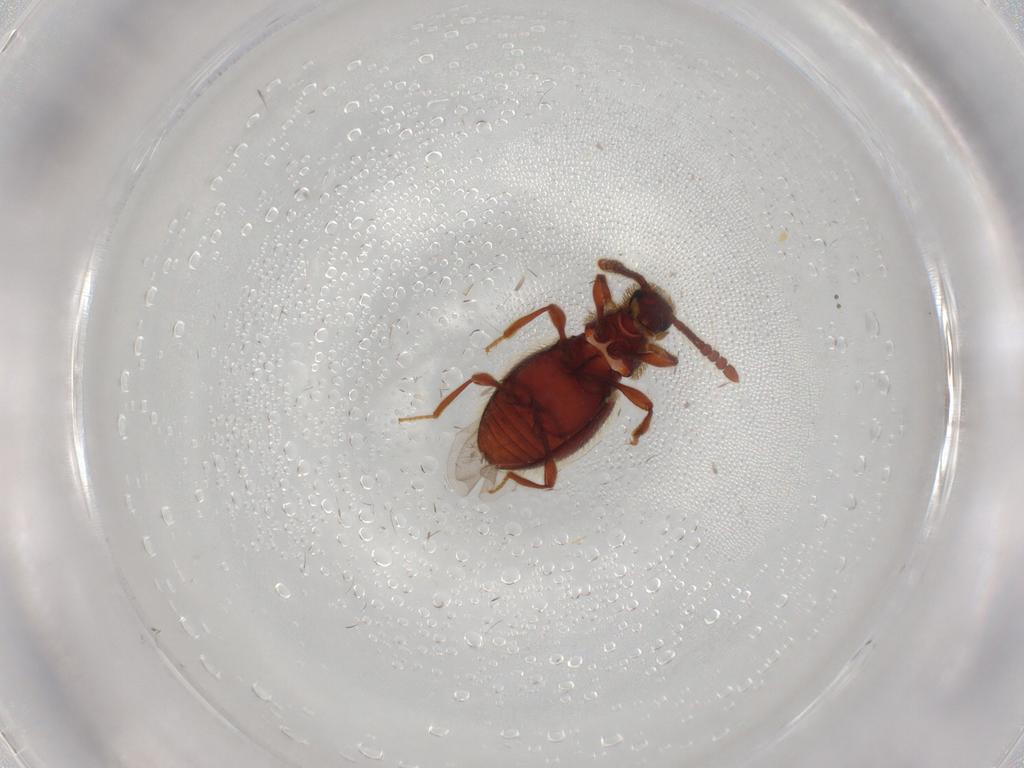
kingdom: Animalia
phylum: Arthropoda
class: Insecta
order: Coleoptera
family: Staphylinidae
